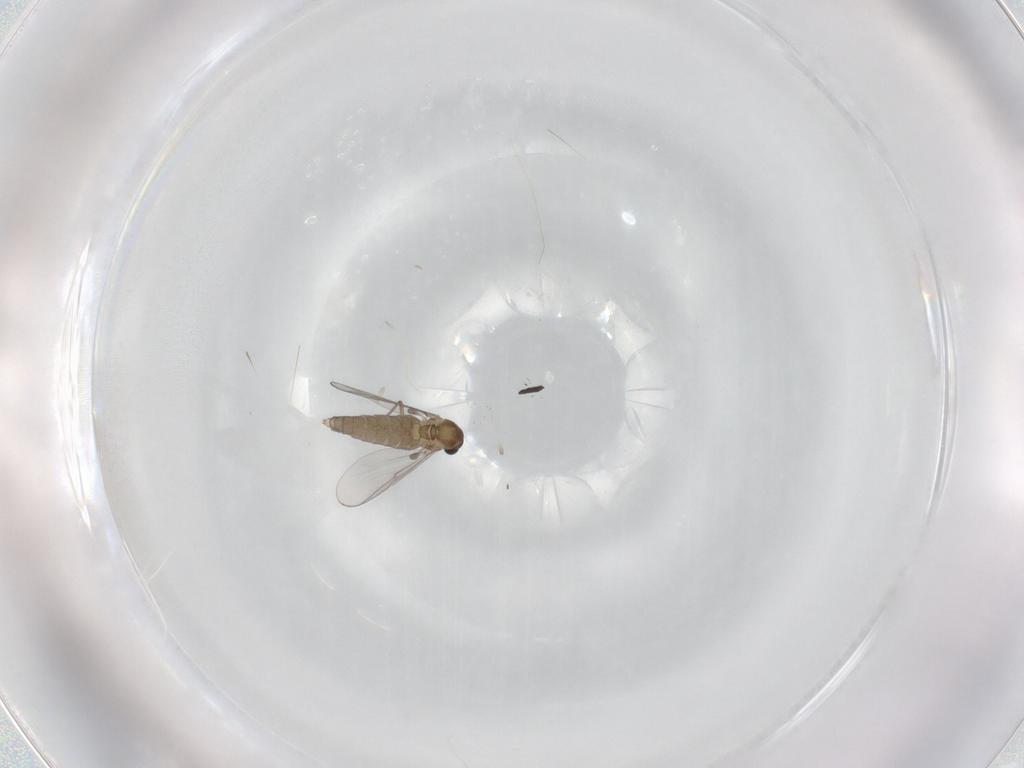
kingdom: Animalia
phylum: Arthropoda
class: Insecta
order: Diptera
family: Chironomidae
